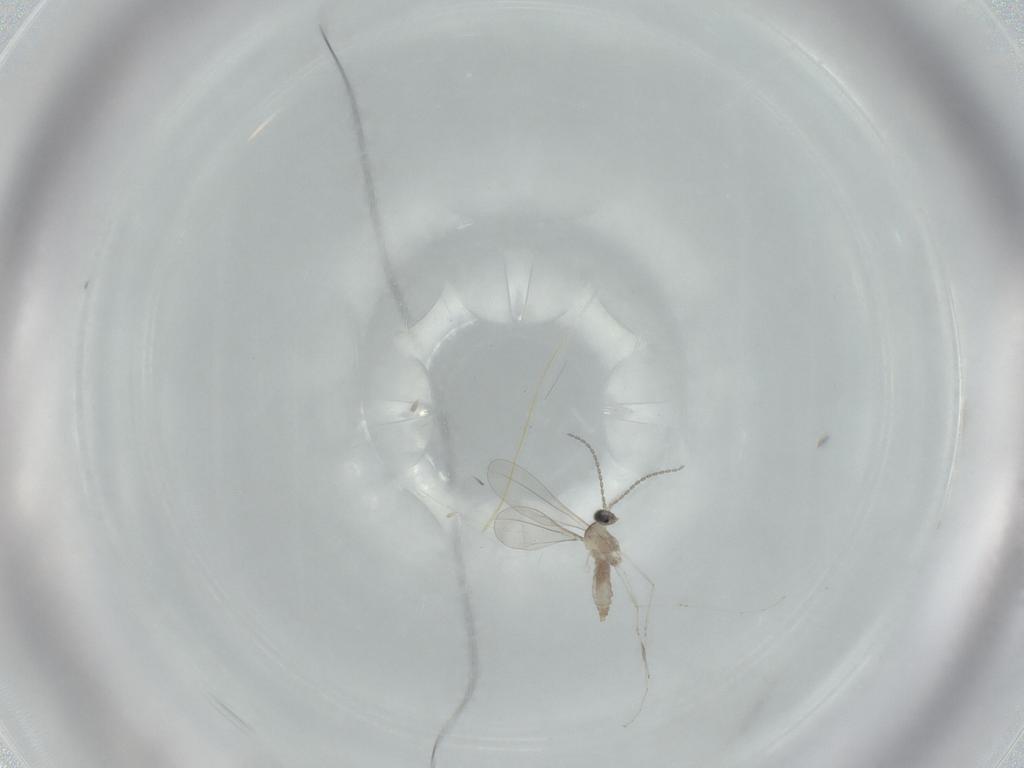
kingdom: Animalia
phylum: Arthropoda
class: Insecta
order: Diptera
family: Cecidomyiidae
